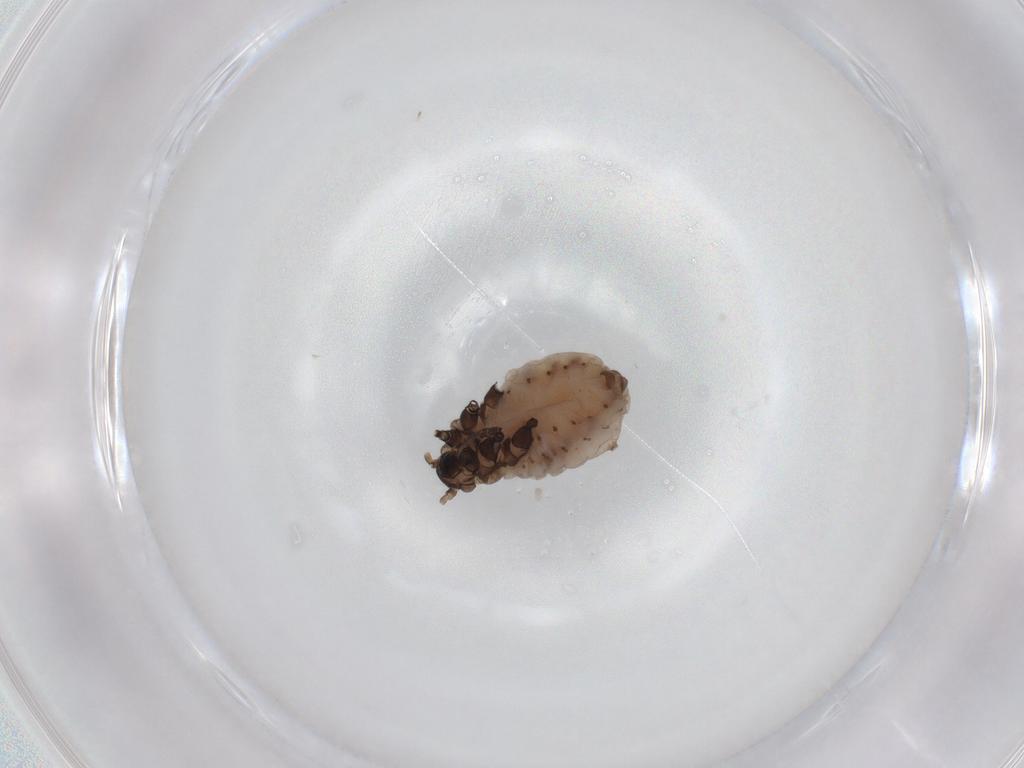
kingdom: Animalia
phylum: Arthropoda
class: Insecta
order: Hemiptera
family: Aphididae
